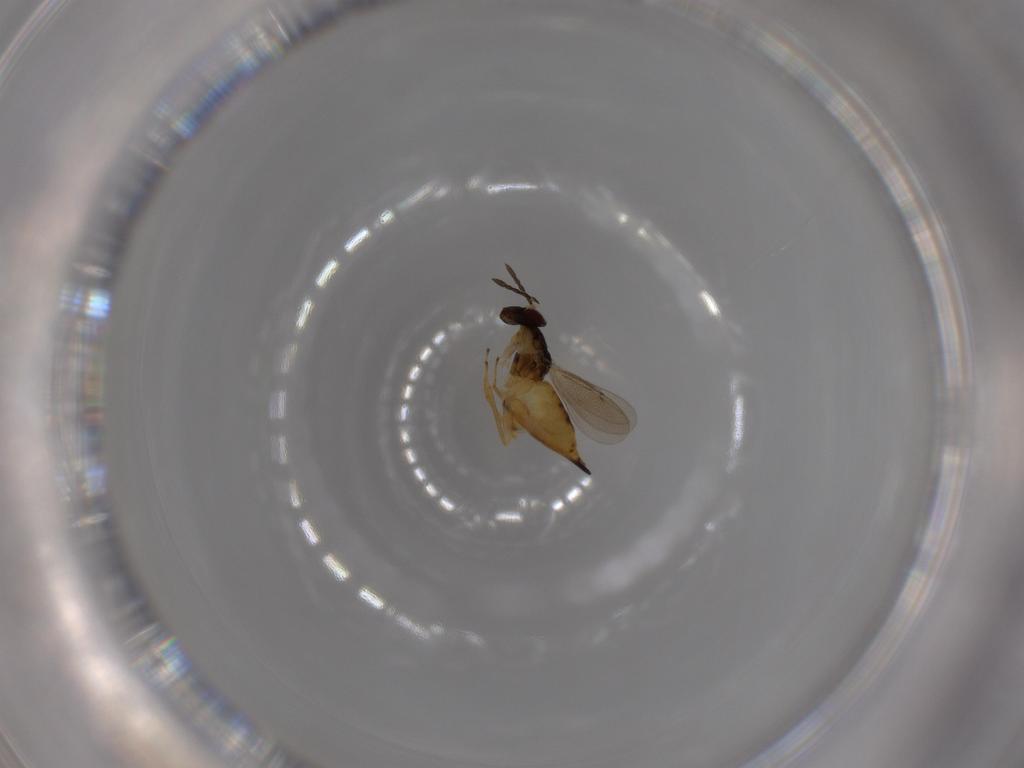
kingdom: Animalia
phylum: Arthropoda
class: Insecta
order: Hymenoptera
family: Eulophidae
